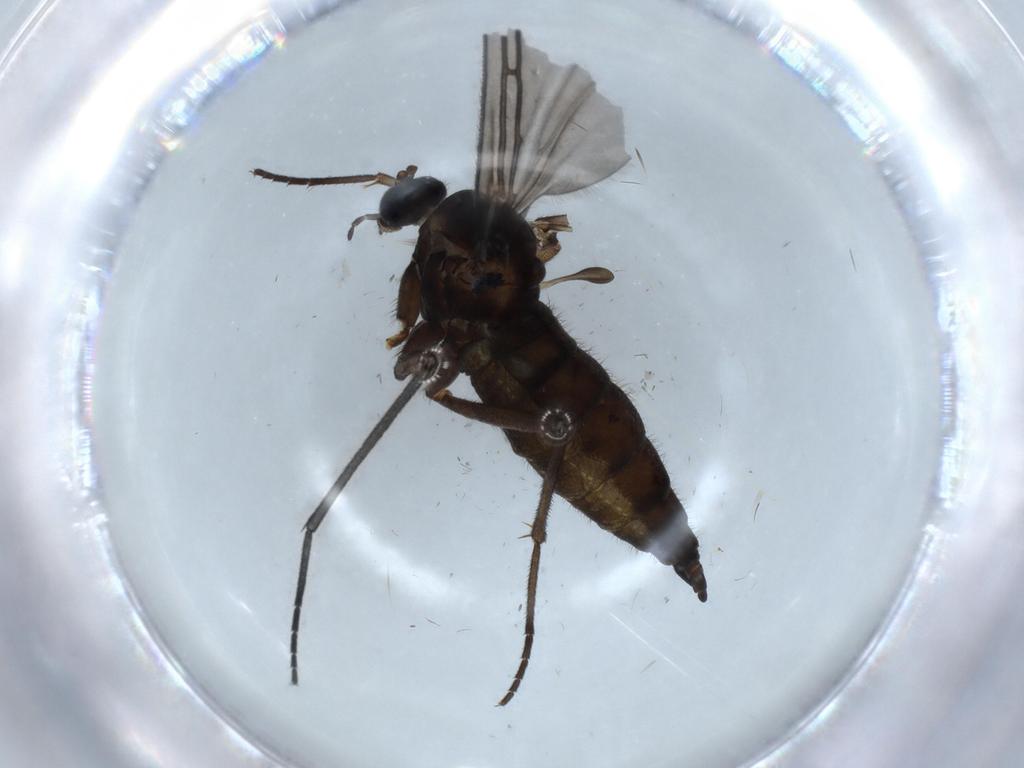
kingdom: Animalia
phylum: Arthropoda
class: Insecta
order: Diptera
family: Sciaridae
